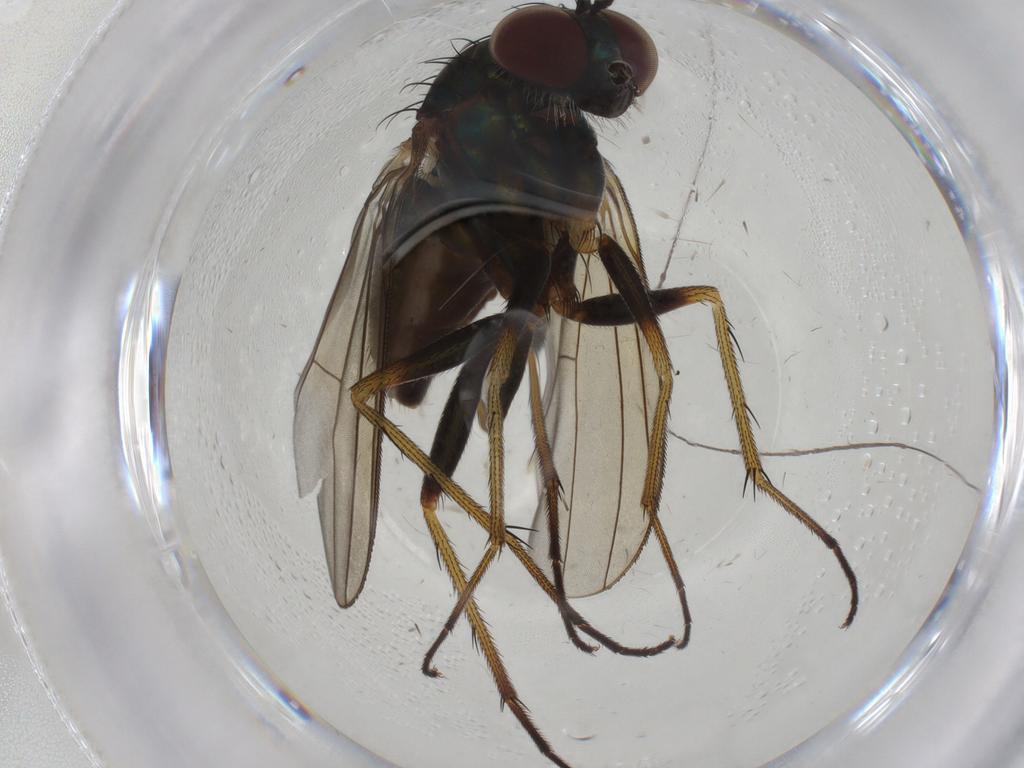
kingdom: Animalia
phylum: Arthropoda
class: Insecta
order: Diptera
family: Dolichopodidae
